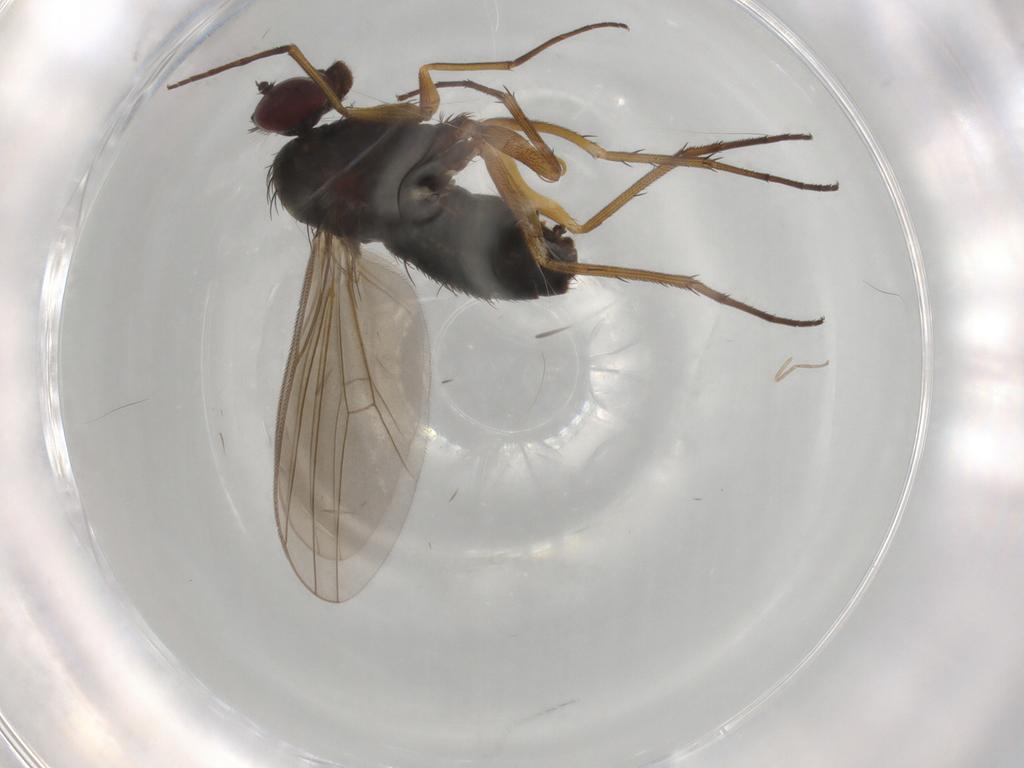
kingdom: Animalia
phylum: Arthropoda
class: Insecta
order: Diptera
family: Dolichopodidae
